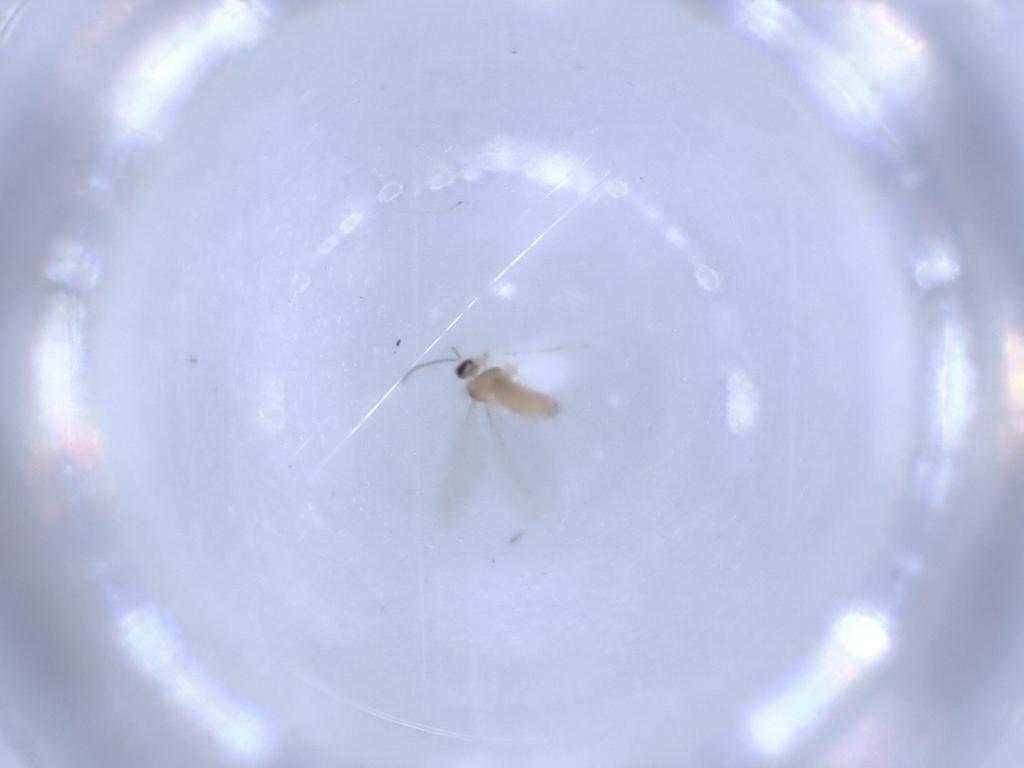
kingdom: Animalia
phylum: Arthropoda
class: Insecta
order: Diptera
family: Cecidomyiidae
